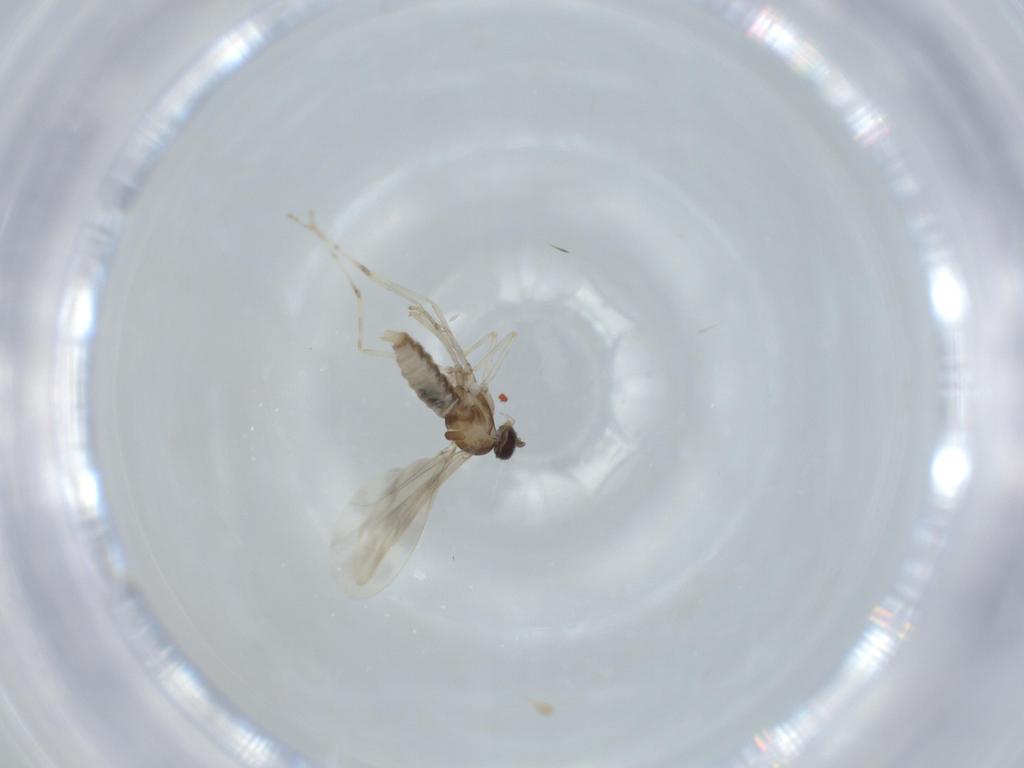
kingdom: Animalia
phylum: Arthropoda
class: Insecta
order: Diptera
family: Cecidomyiidae
